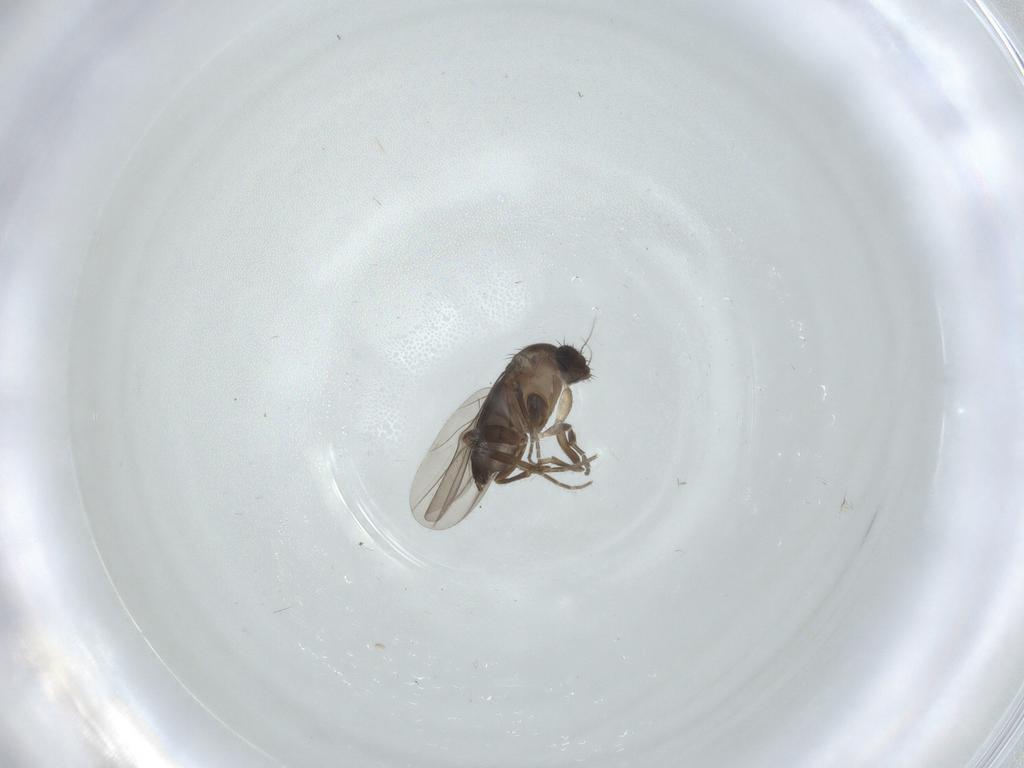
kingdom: Animalia
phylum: Arthropoda
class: Insecta
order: Diptera
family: Phoridae
